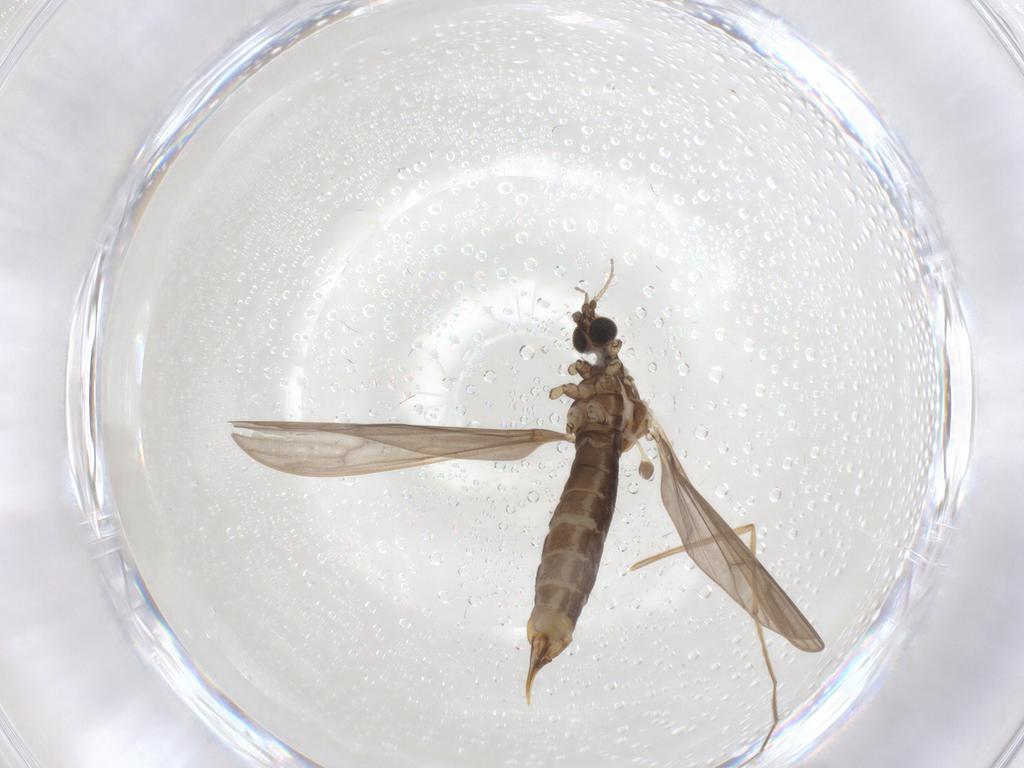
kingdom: Animalia
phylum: Arthropoda
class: Insecta
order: Diptera
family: Limoniidae
